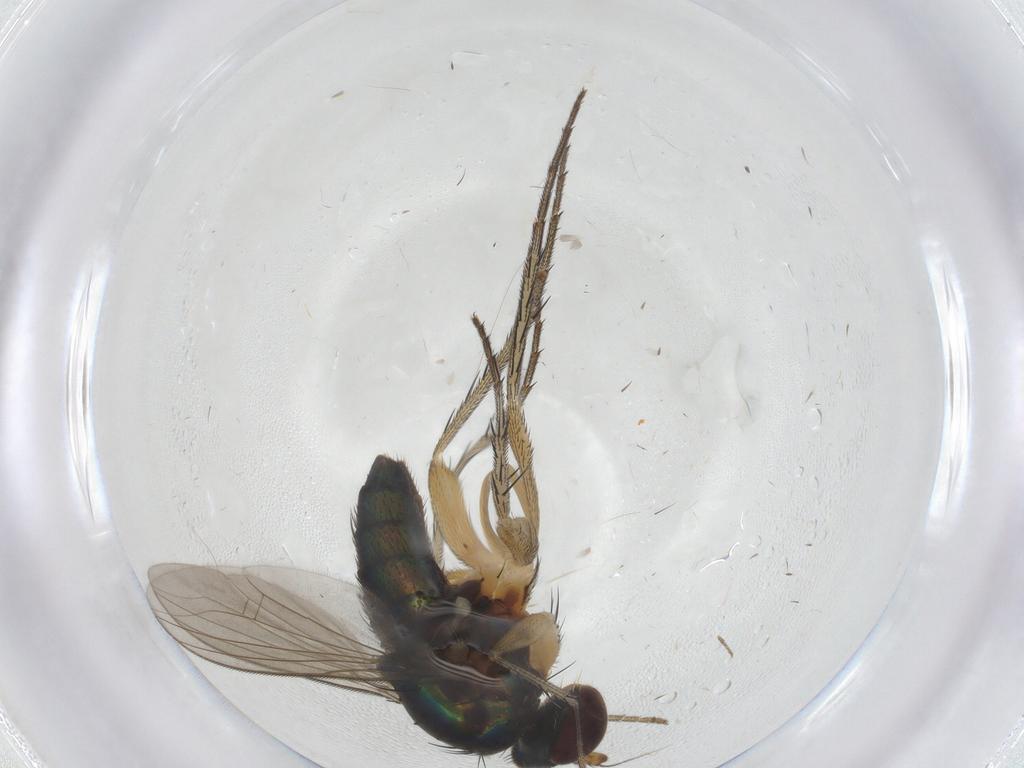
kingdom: Animalia
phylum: Arthropoda
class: Insecta
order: Diptera
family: Dolichopodidae
